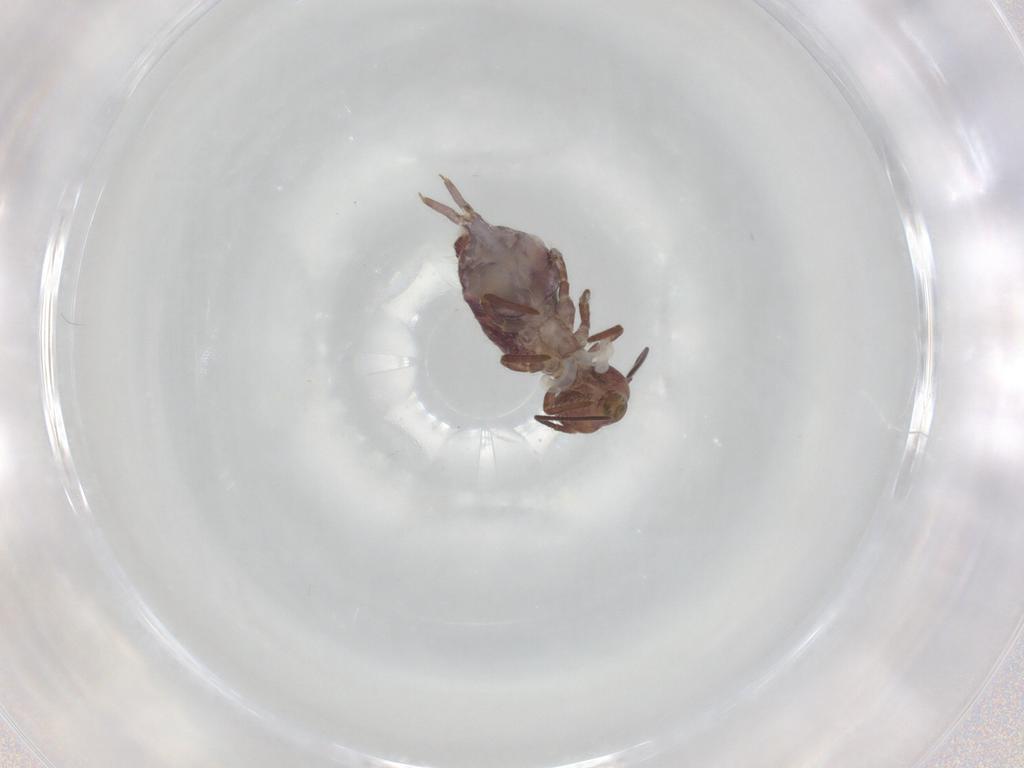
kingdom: Animalia
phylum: Arthropoda
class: Collembola
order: Symphypleona
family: Sminthuridae
